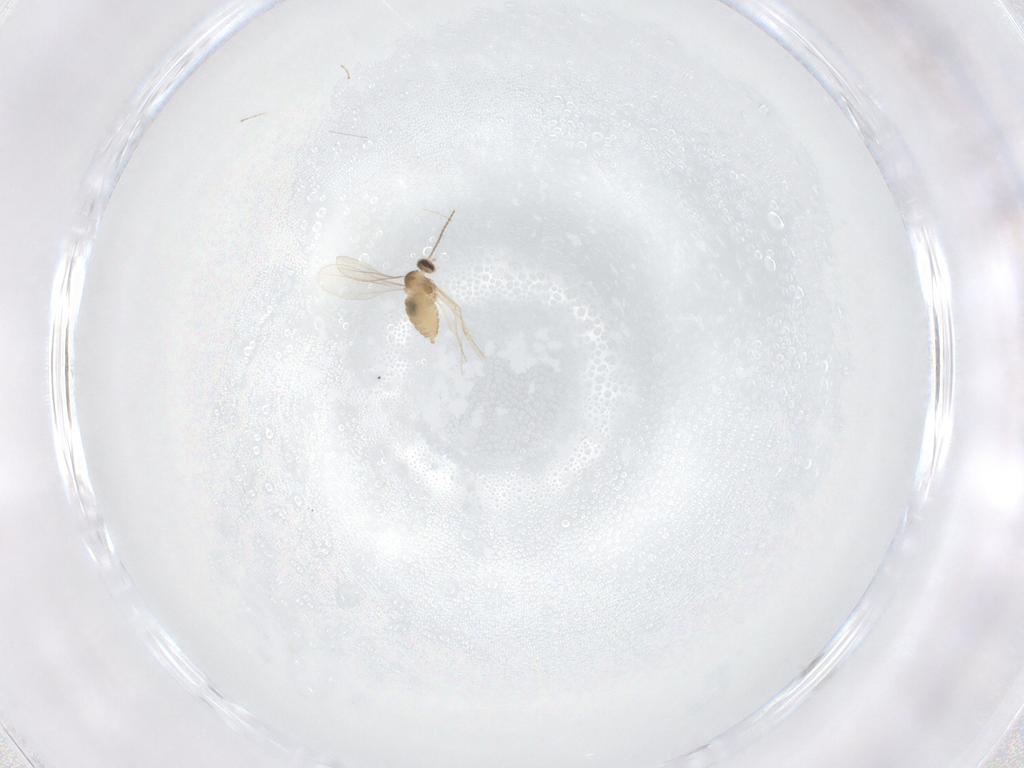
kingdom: Animalia
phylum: Arthropoda
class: Insecta
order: Diptera
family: Cecidomyiidae
